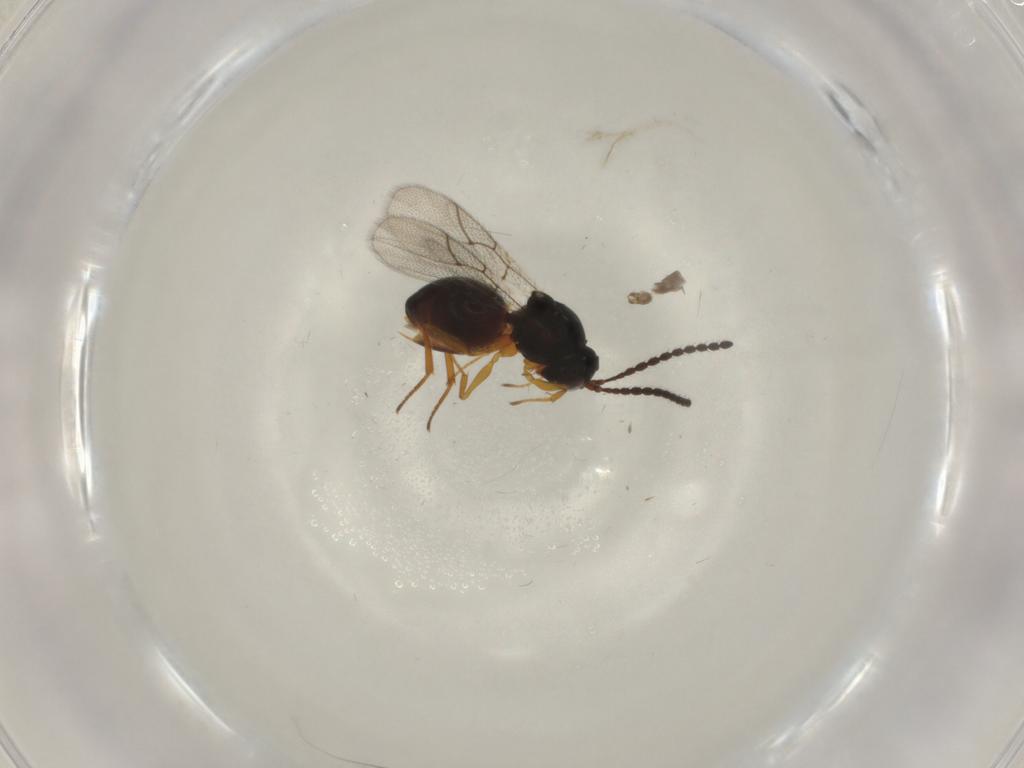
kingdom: Animalia
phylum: Arthropoda
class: Insecta
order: Hymenoptera
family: Figitidae
